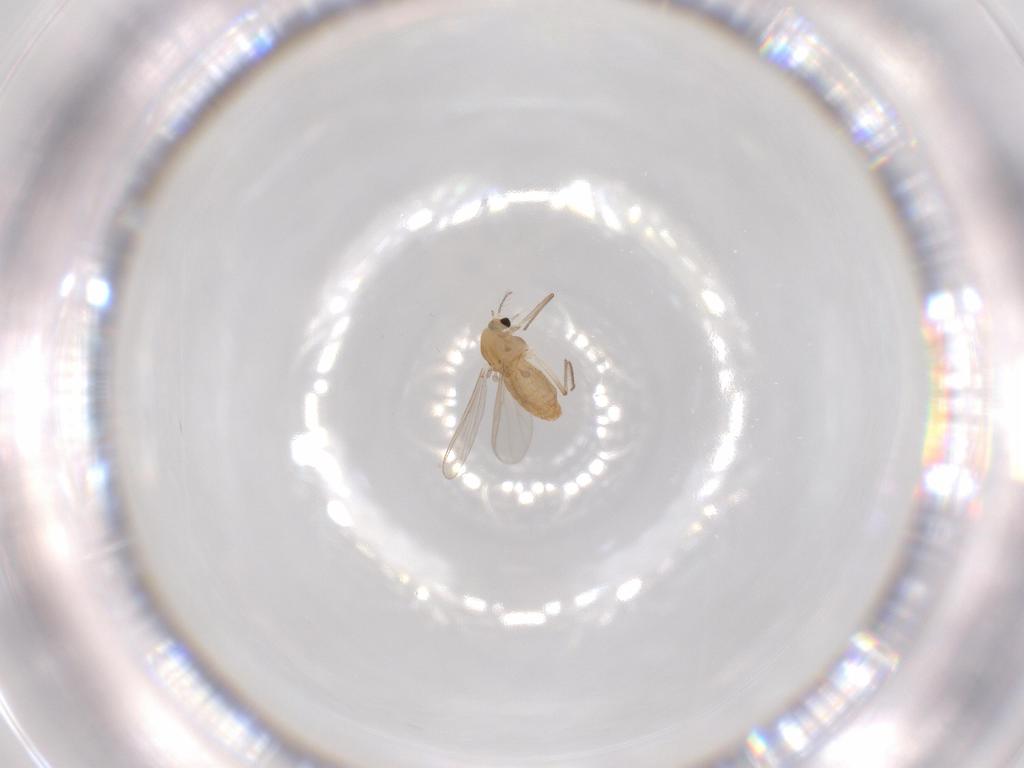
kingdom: Animalia
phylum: Arthropoda
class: Insecta
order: Diptera
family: Chironomidae
